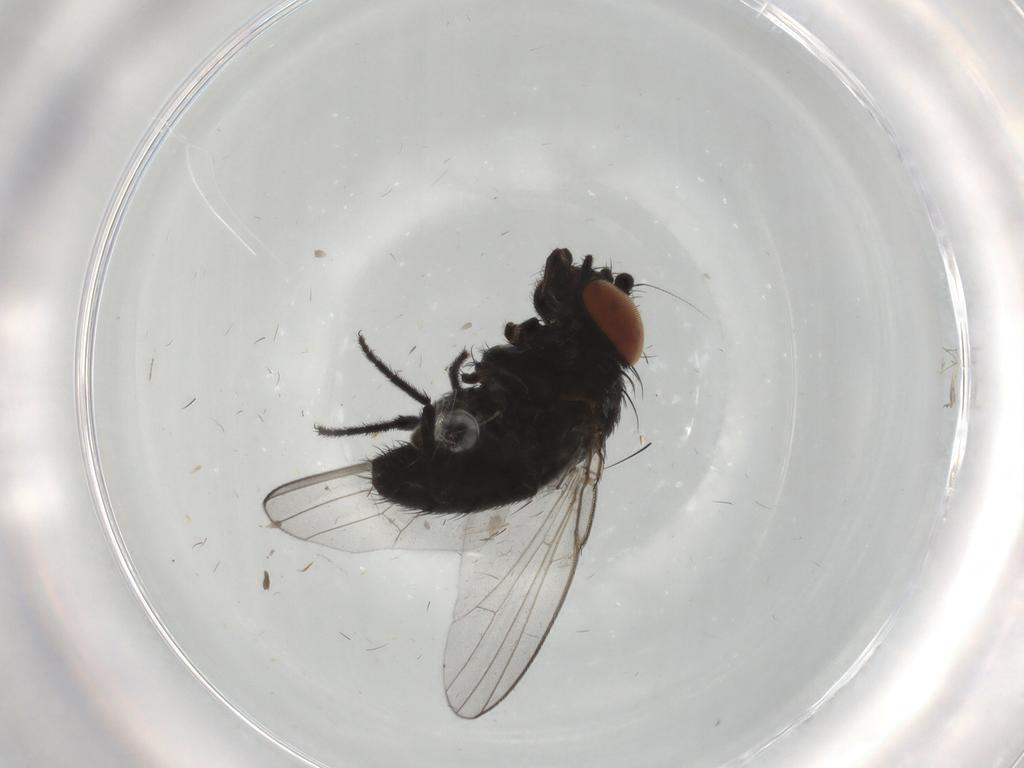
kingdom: Animalia
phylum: Arthropoda
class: Insecta
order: Diptera
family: Milichiidae
